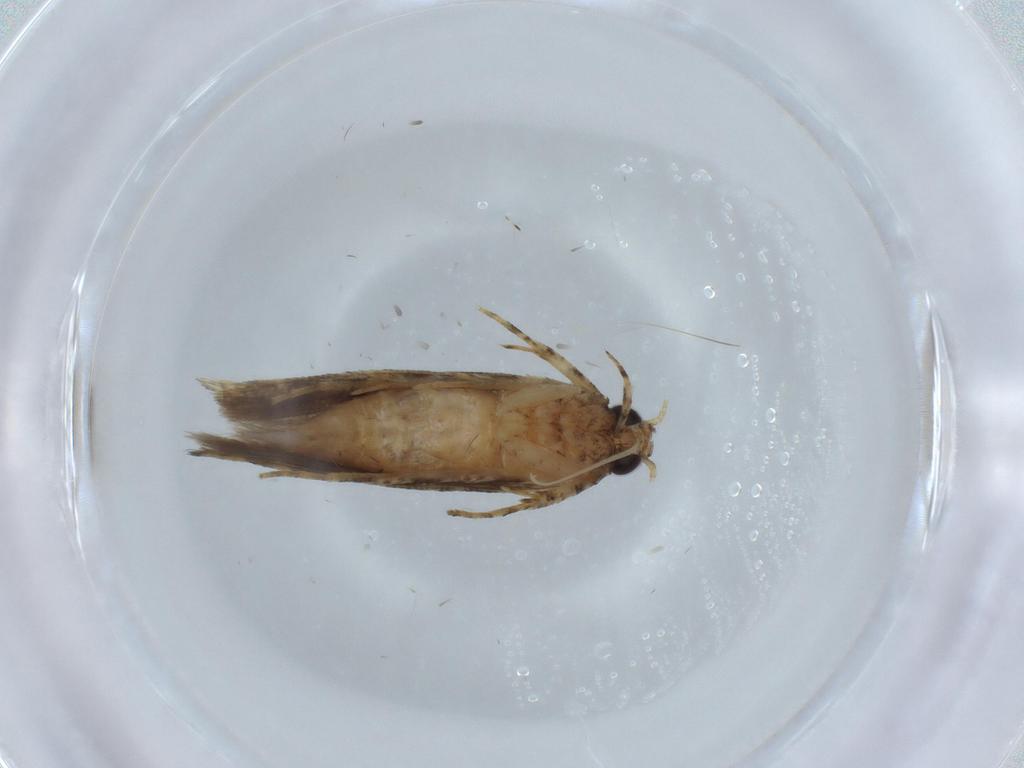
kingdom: Animalia
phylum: Arthropoda
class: Insecta
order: Lepidoptera
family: Gelechiidae
